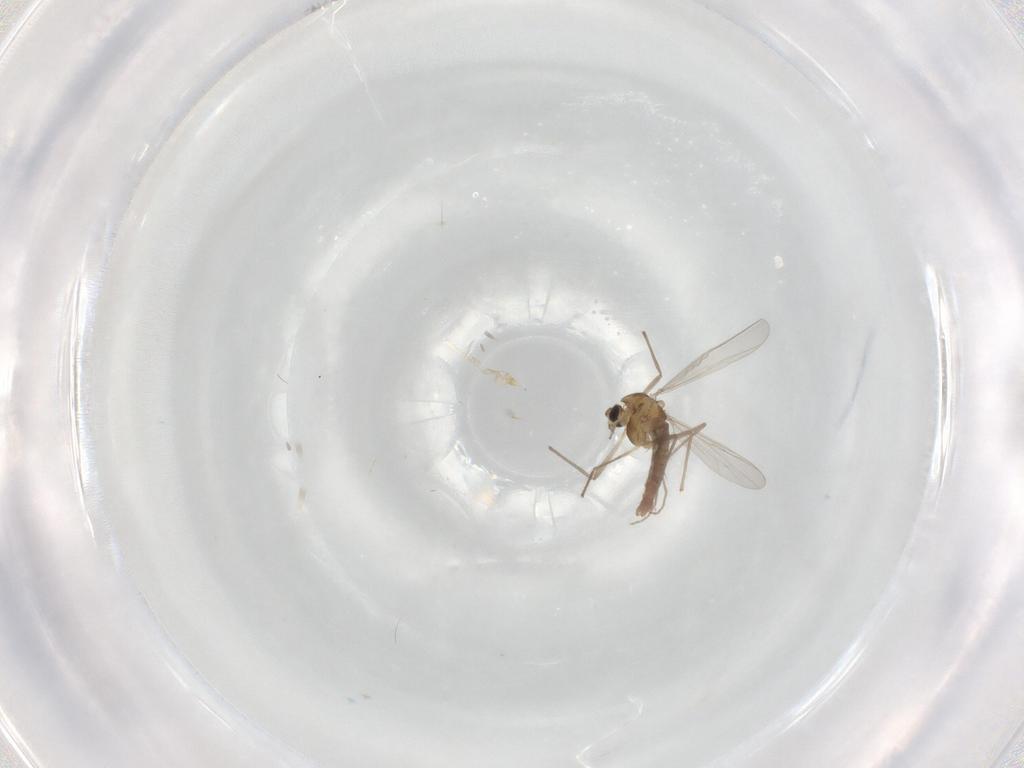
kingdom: Animalia
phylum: Arthropoda
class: Insecta
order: Diptera
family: Chironomidae
